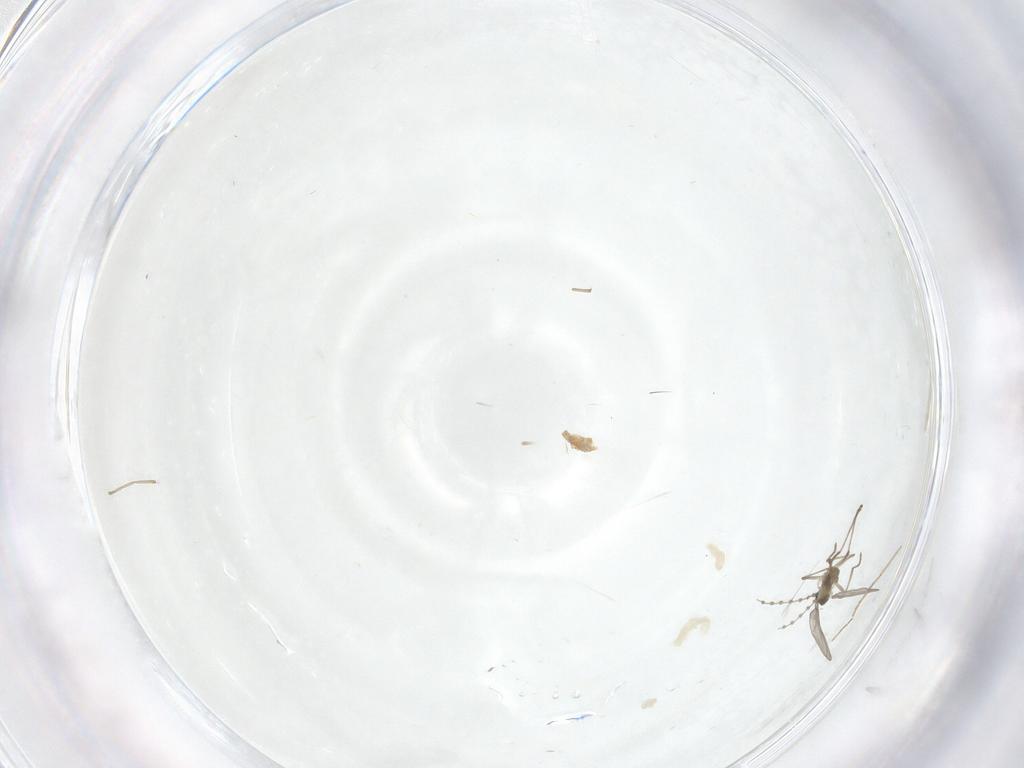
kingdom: Animalia
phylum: Arthropoda
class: Insecta
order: Diptera
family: Cecidomyiidae
